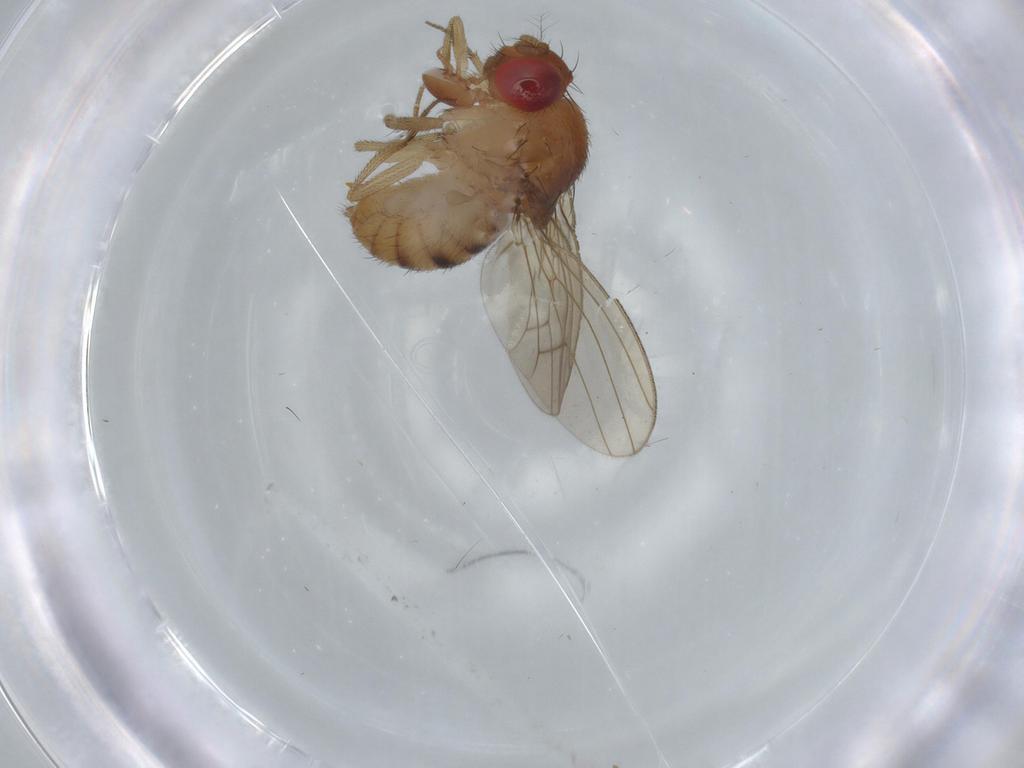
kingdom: Animalia
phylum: Arthropoda
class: Insecta
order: Diptera
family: Drosophilidae
